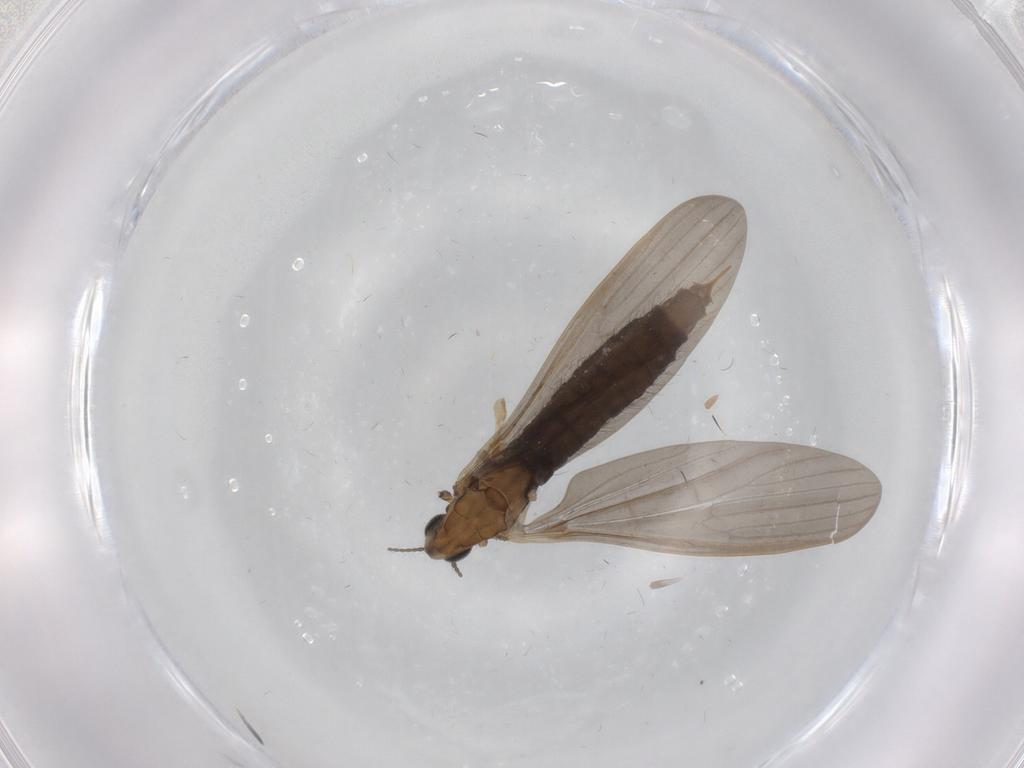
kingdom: Animalia
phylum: Arthropoda
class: Insecta
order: Diptera
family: Limoniidae
